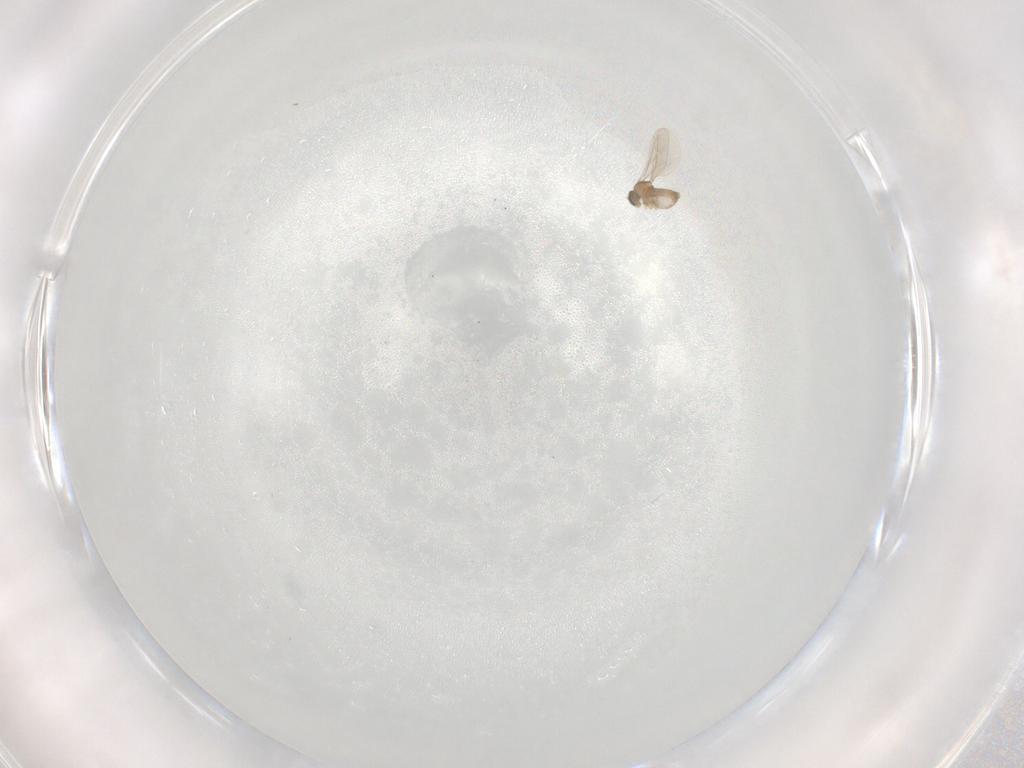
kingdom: Animalia
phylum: Arthropoda
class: Insecta
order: Diptera
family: Cecidomyiidae
